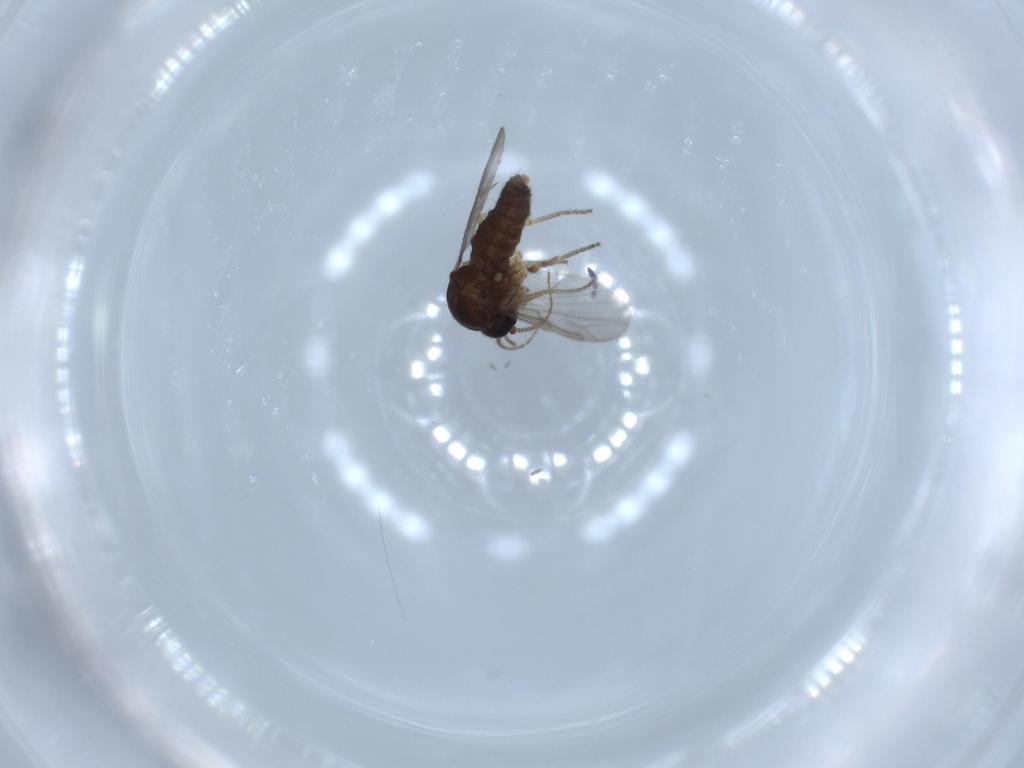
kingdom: Animalia
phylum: Arthropoda
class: Insecta
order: Diptera
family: Ceratopogonidae
